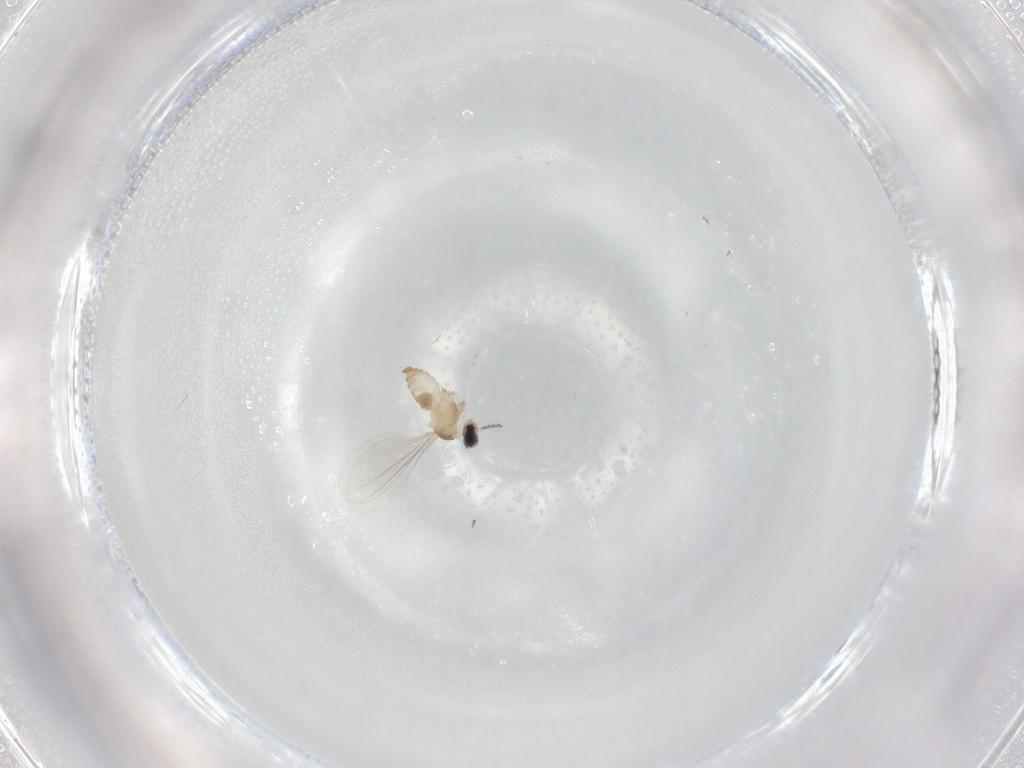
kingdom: Animalia
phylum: Arthropoda
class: Insecta
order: Diptera
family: Cecidomyiidae
